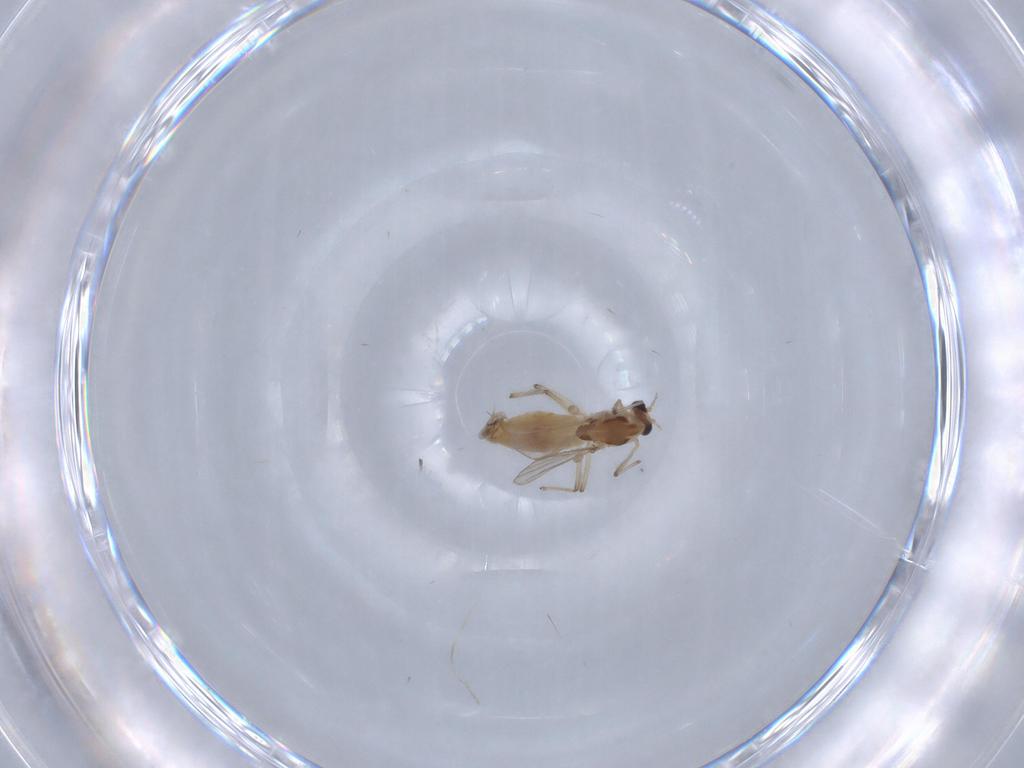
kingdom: Animalia
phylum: Arthropoda
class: Insecta
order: Diptera
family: Chironomidae
